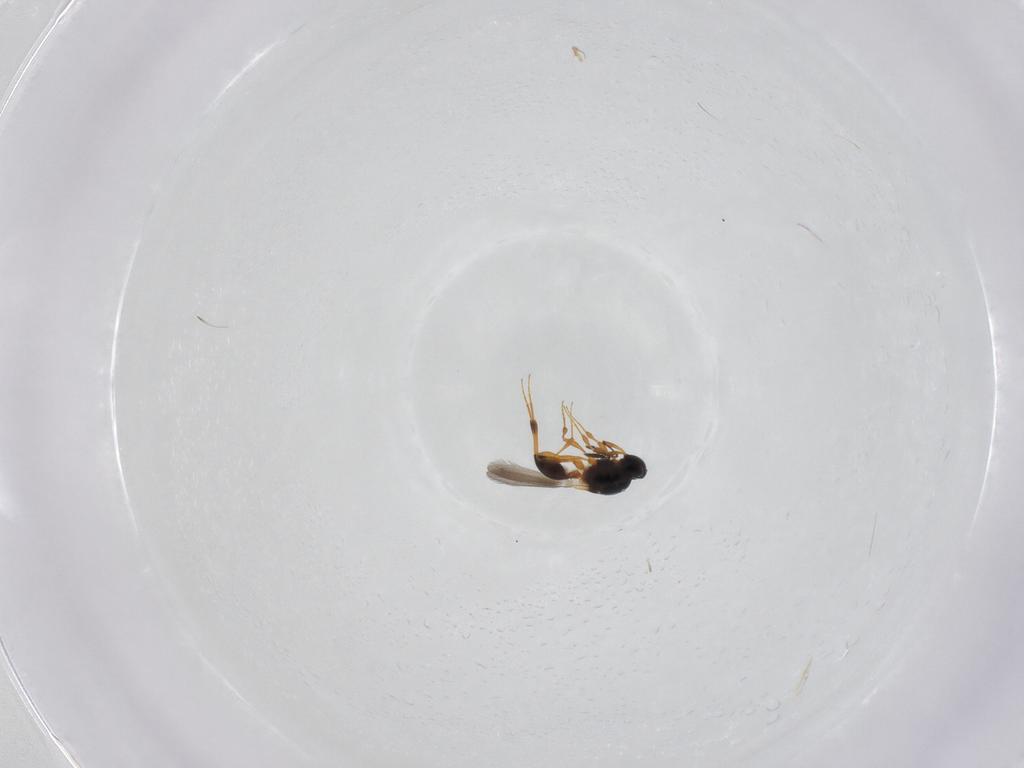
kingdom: Animalia
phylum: Arthropoda
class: Insecta
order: Hymenoptera
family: Platygastridae
